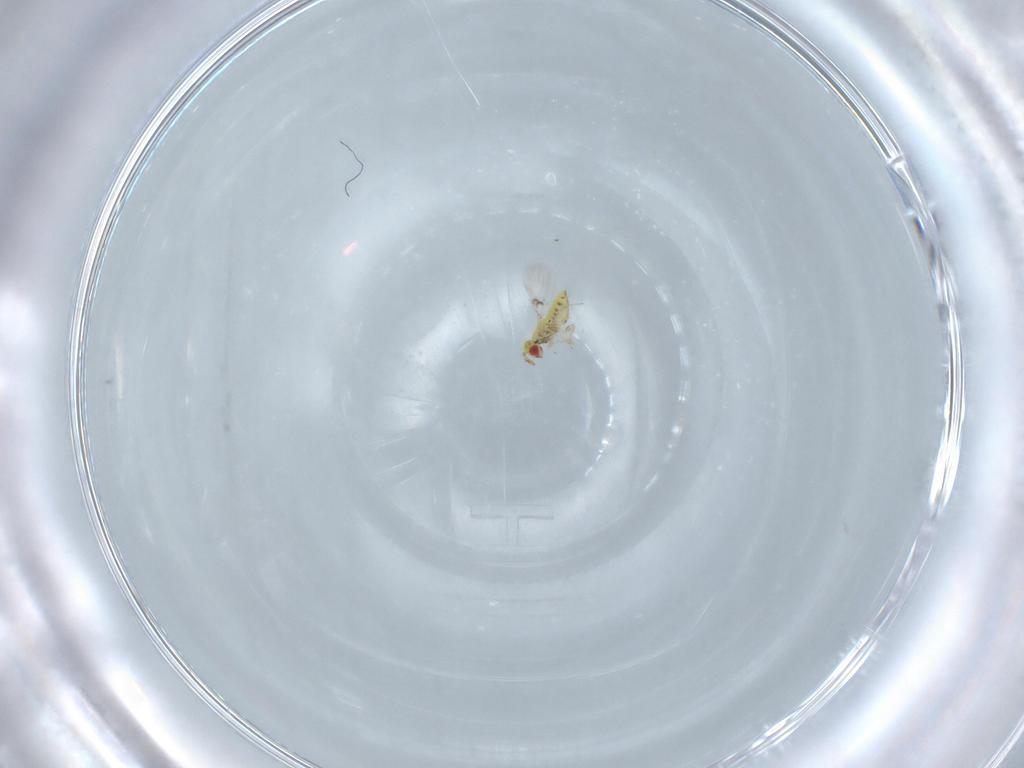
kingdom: Animalia
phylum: Arthropoda
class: Insecta
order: Hymenoptera
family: Trichogrammatidae
